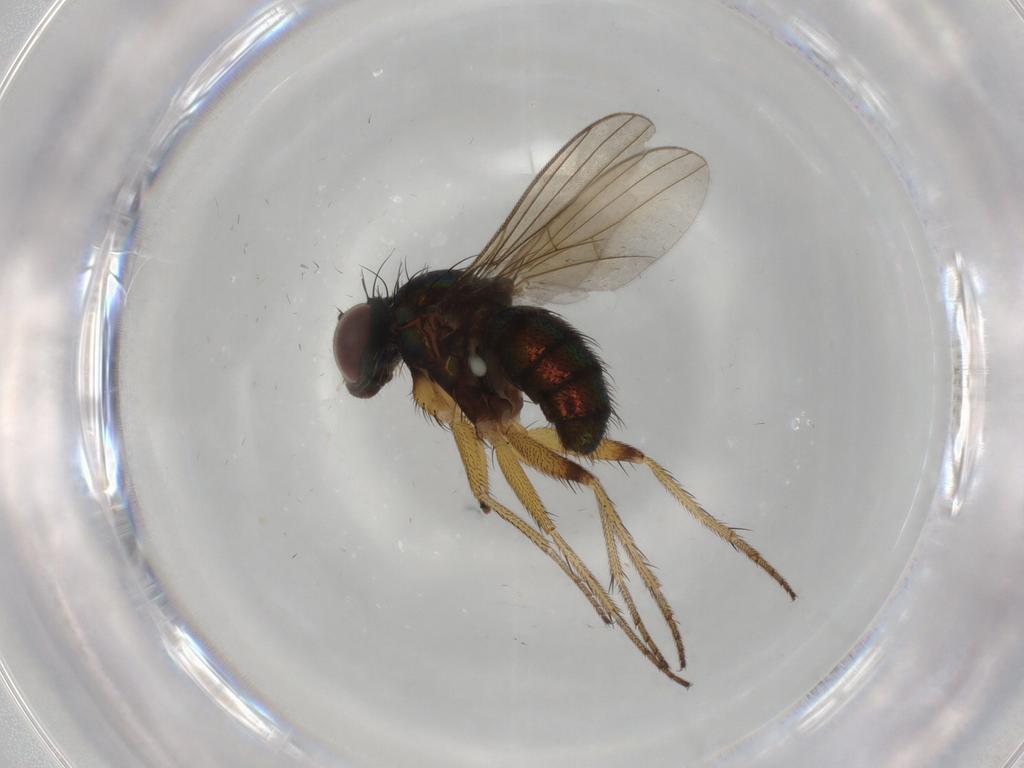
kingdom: Animalia
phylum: Arthropoda
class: Insecta
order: Diptera
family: Dolichopodidae
